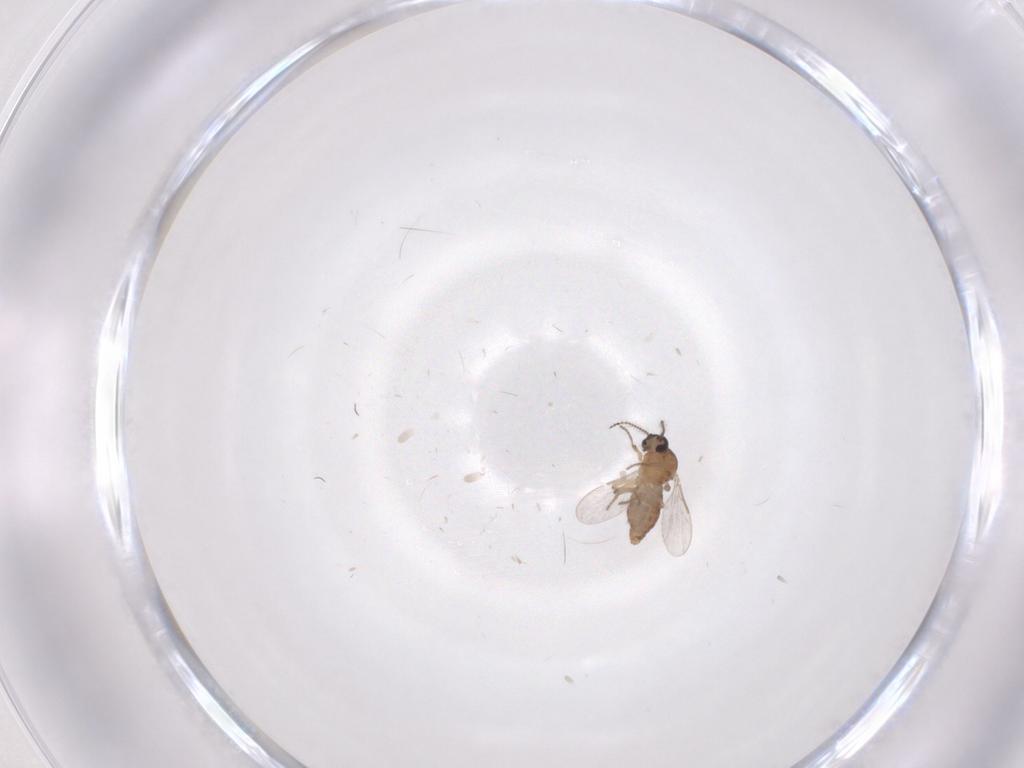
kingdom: Animalia
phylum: Arthropoda
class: Insecta
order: Diptera
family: Ceratopogonidae
